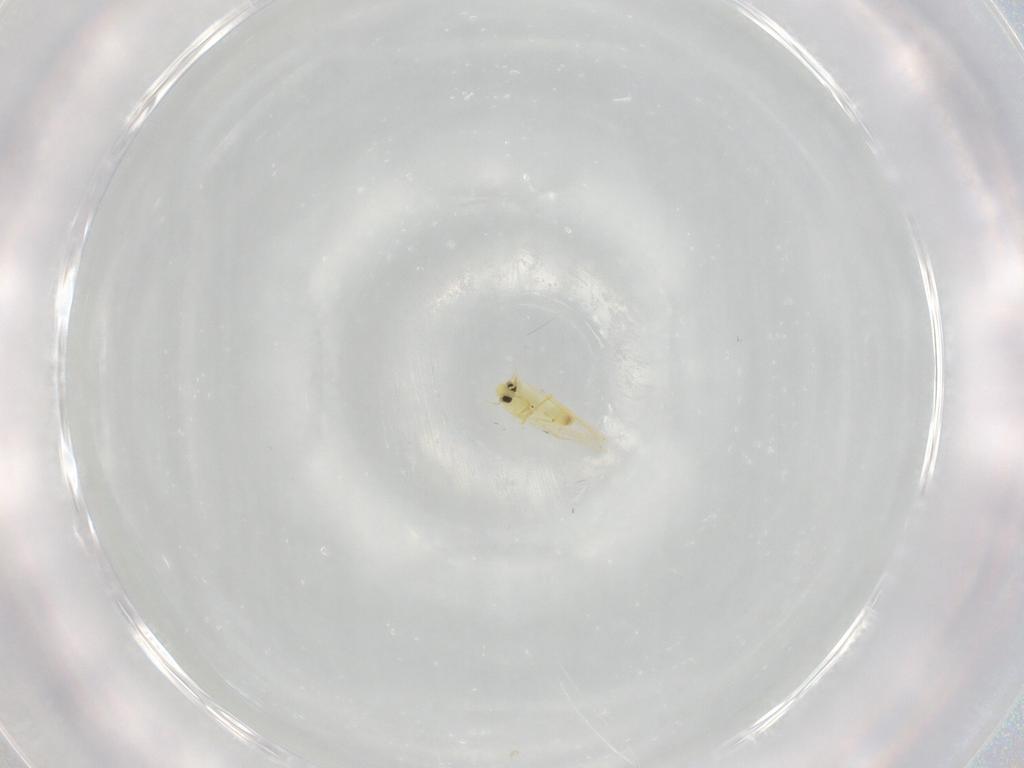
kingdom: Animalia
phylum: Arthropoda
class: Insecta
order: Hemiptera
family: Aleyrodidae
